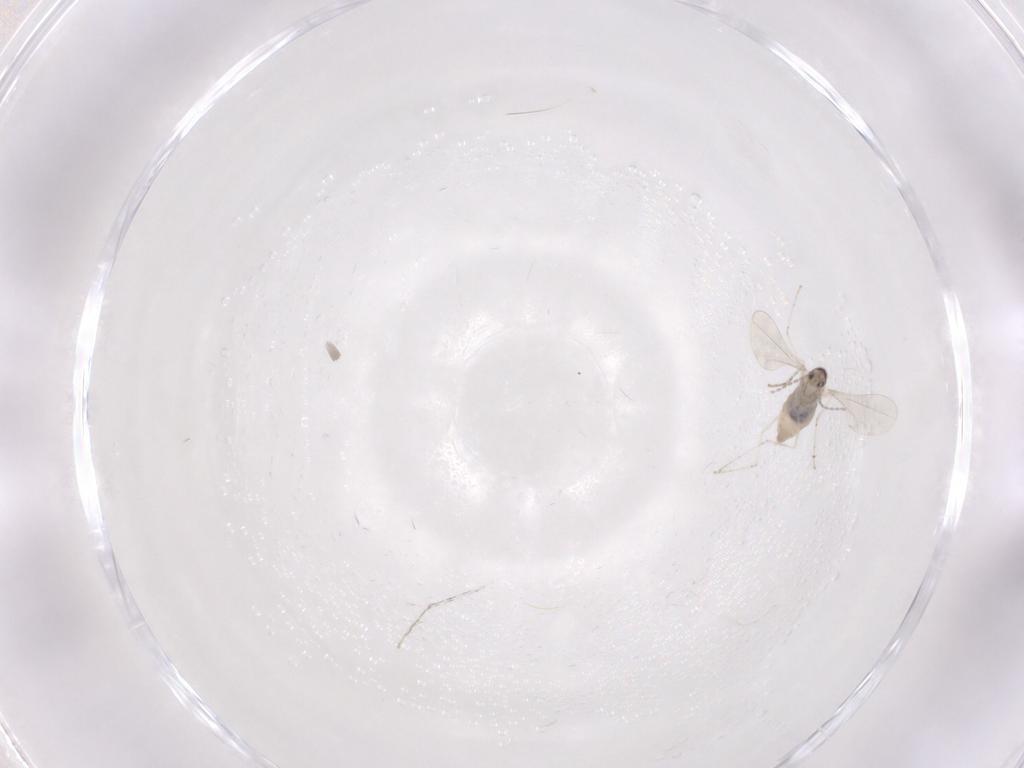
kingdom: Animalia
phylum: Arthropoda
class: Insecta
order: Diptera
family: Cecidomyiidae
